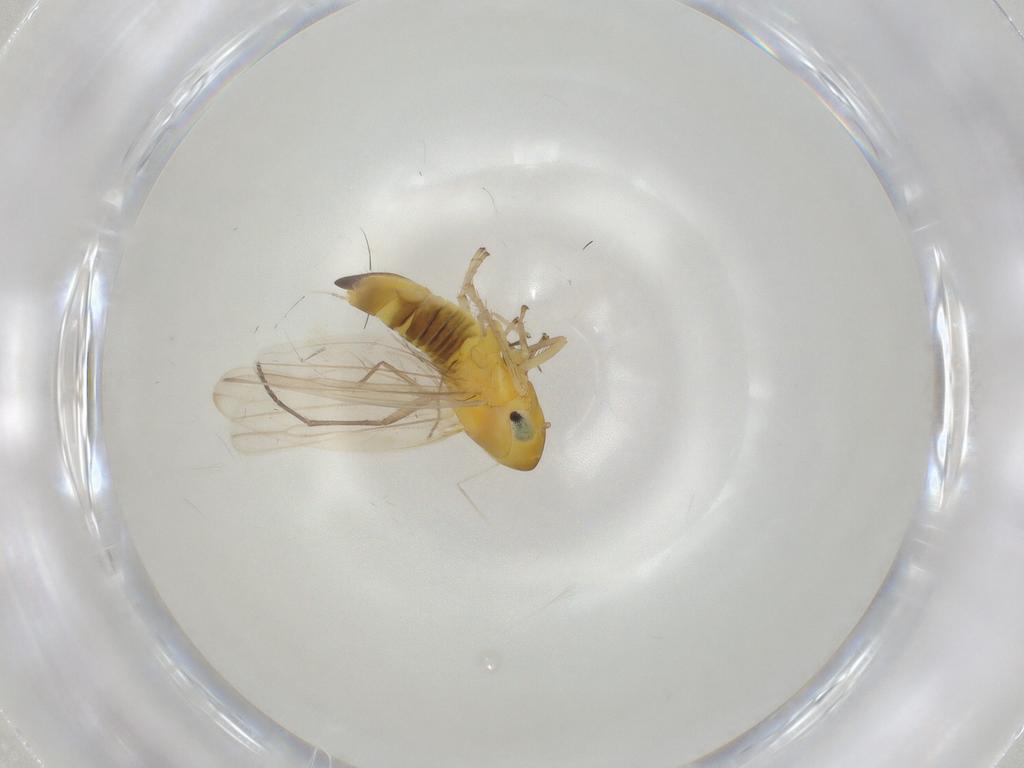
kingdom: Animalia
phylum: Arthropoda
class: Insecta
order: Hemiptera
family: Cicadellidae
